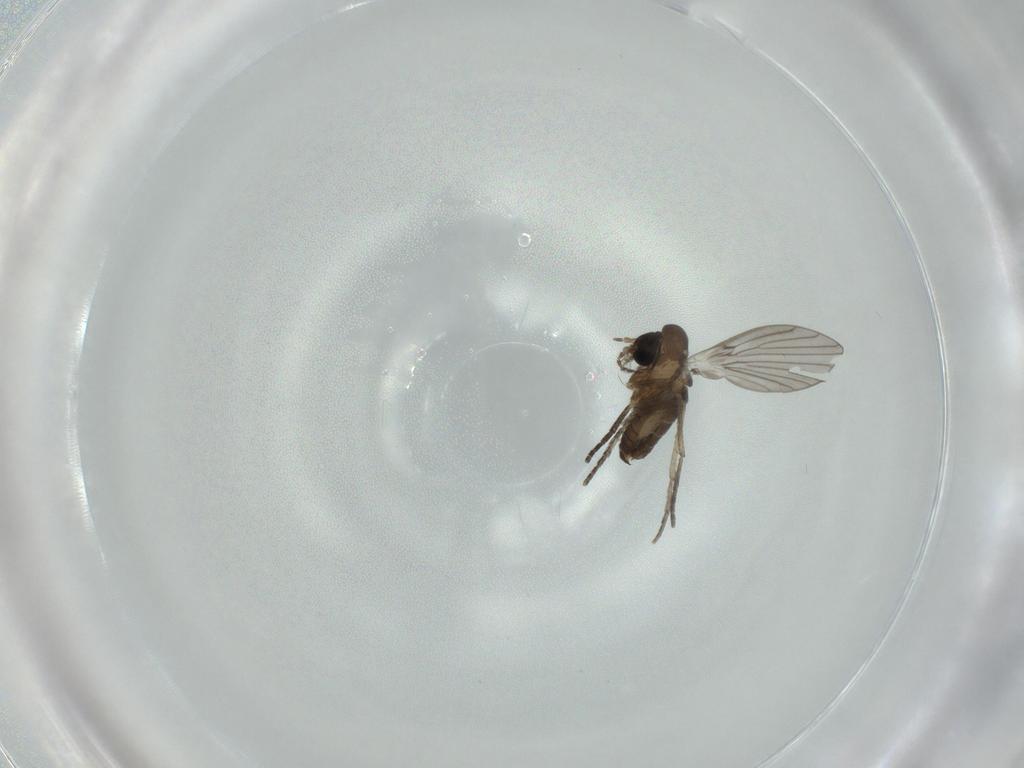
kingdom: Animalia
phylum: Arthropoda
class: Insecta
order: Diptera
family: Psychodidae
